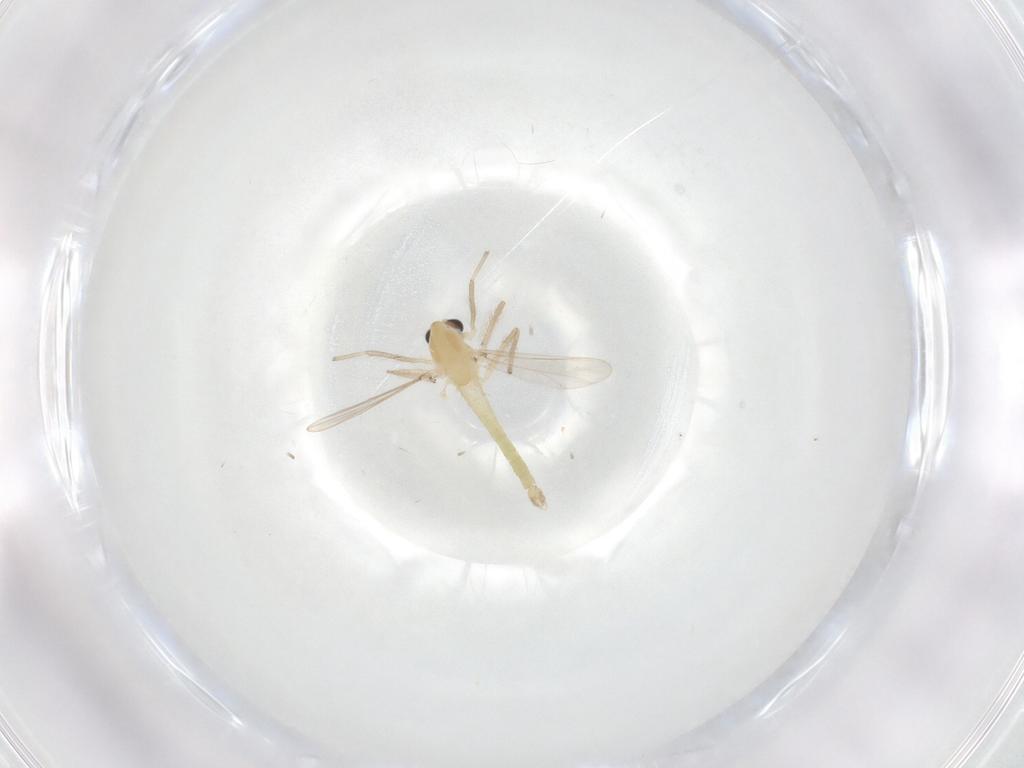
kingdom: Animalia
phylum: Arthropoda
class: Insecta
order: Diptera
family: Chironomidae
